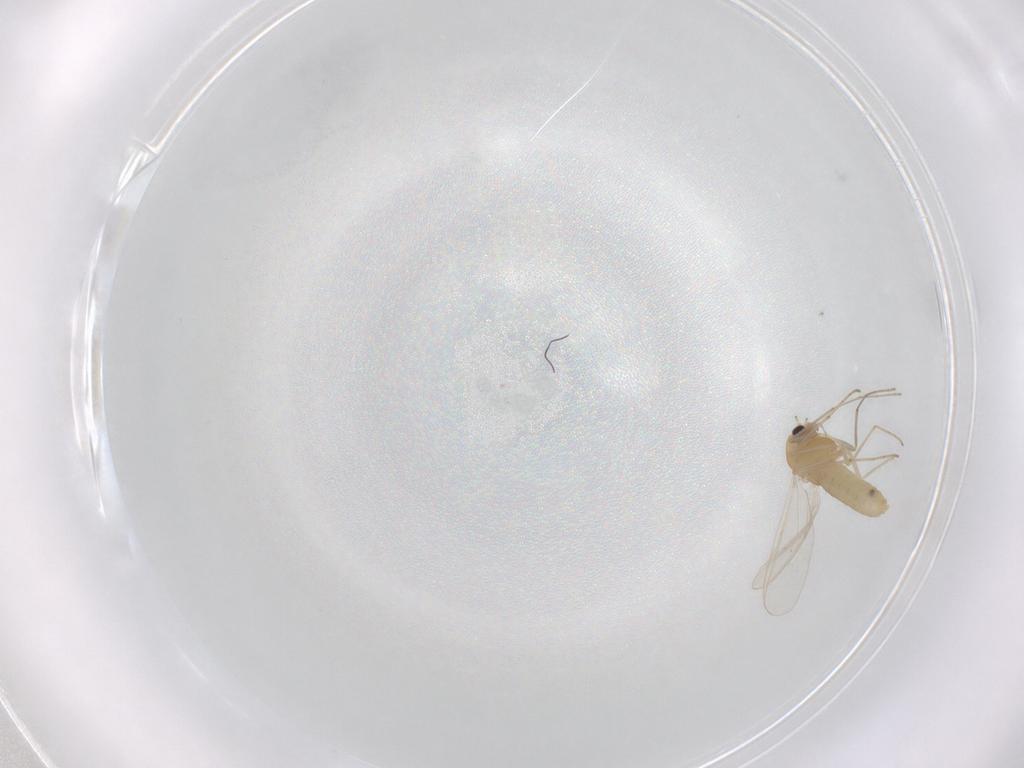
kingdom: Animalia
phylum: Arthropoda
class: Insecta
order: Diptera
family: Chironomidae
